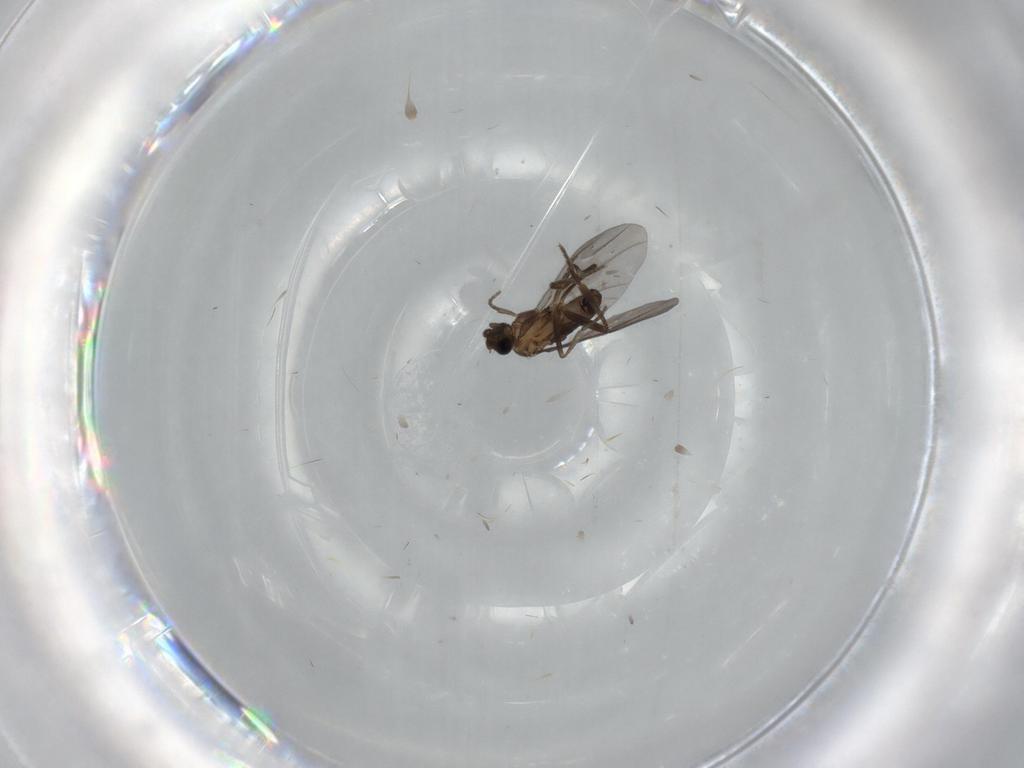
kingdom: Animalia
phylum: Arthropoda
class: Insecta
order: Diptera
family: Phoridae
